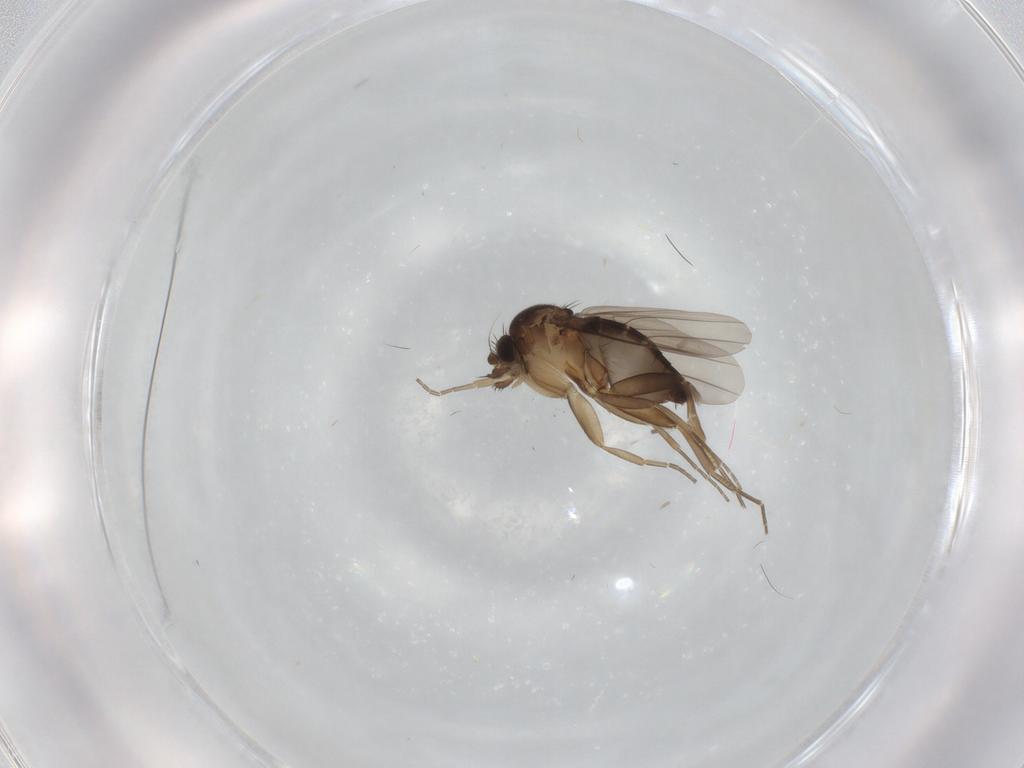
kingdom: Animalia
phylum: Arthropoda
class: Insecta
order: Diptera
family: Phoridae
